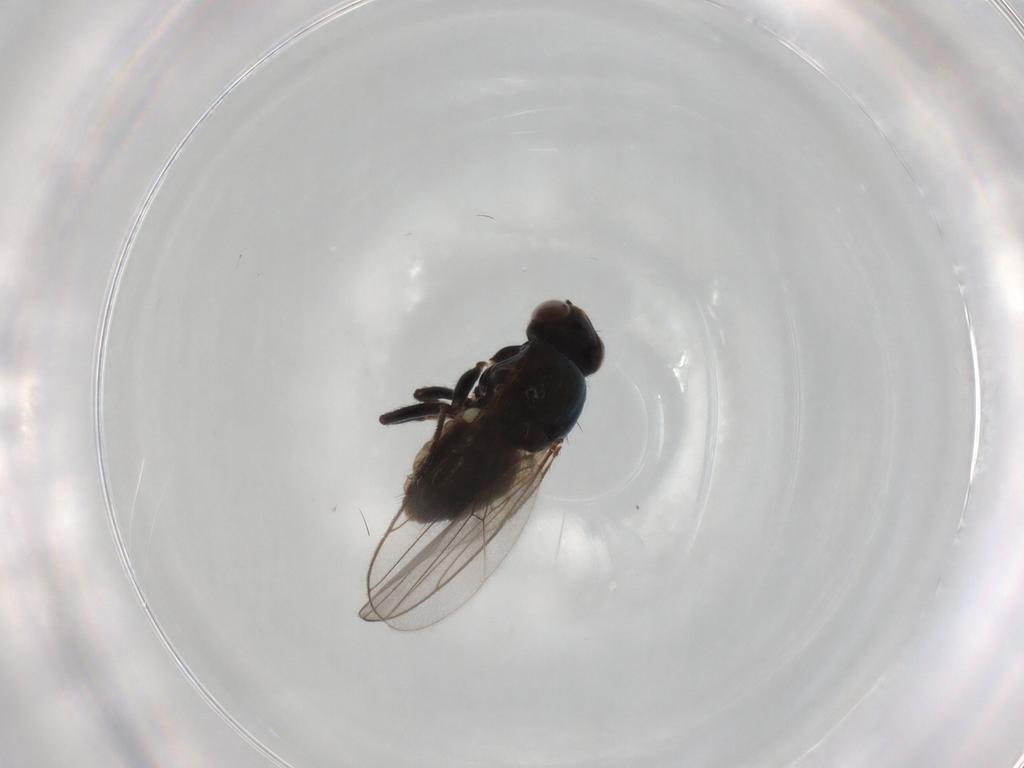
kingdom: Animalia
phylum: Arthropoda
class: Insecta
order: Diptera
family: Chloropidae
